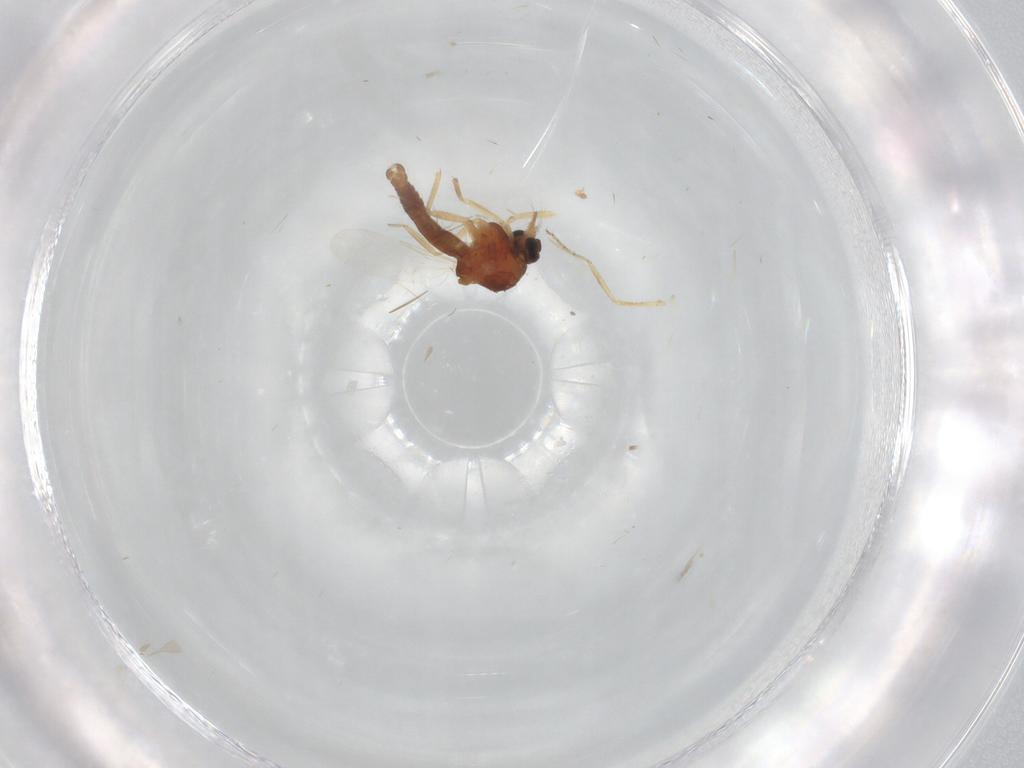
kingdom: Animalia
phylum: Arthropoda
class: Insecta
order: Diptera
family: Ceratopogonidae
